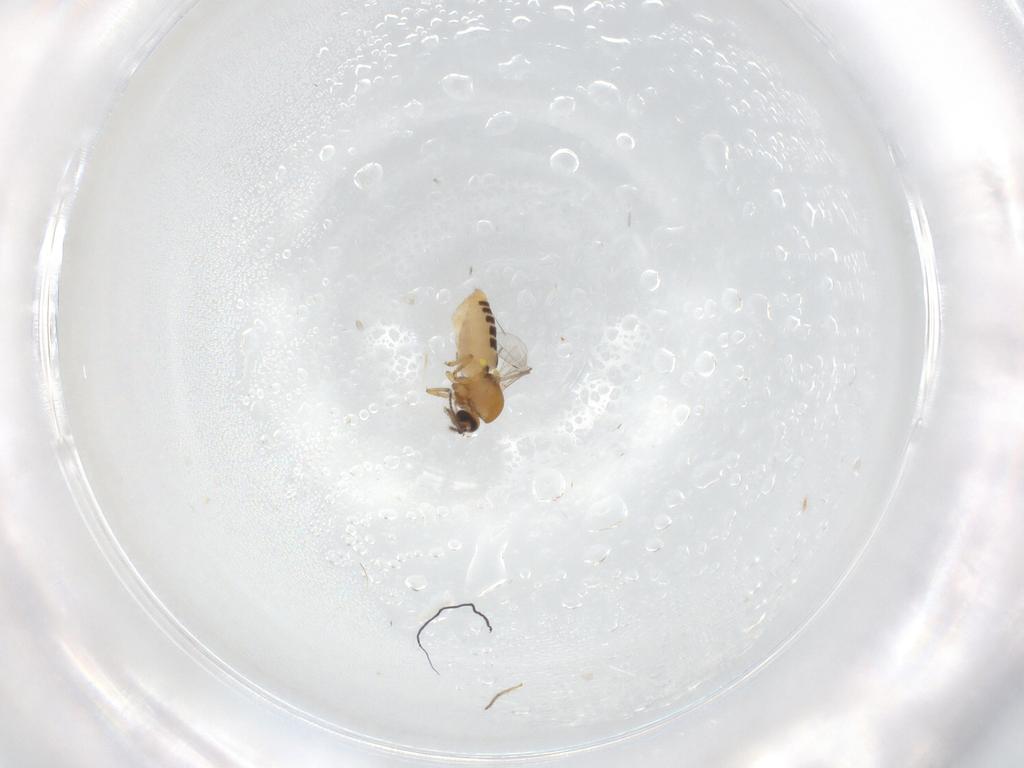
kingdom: Animalia
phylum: Arthropoda
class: Insecta
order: Diptera
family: Ceratopogonidae
